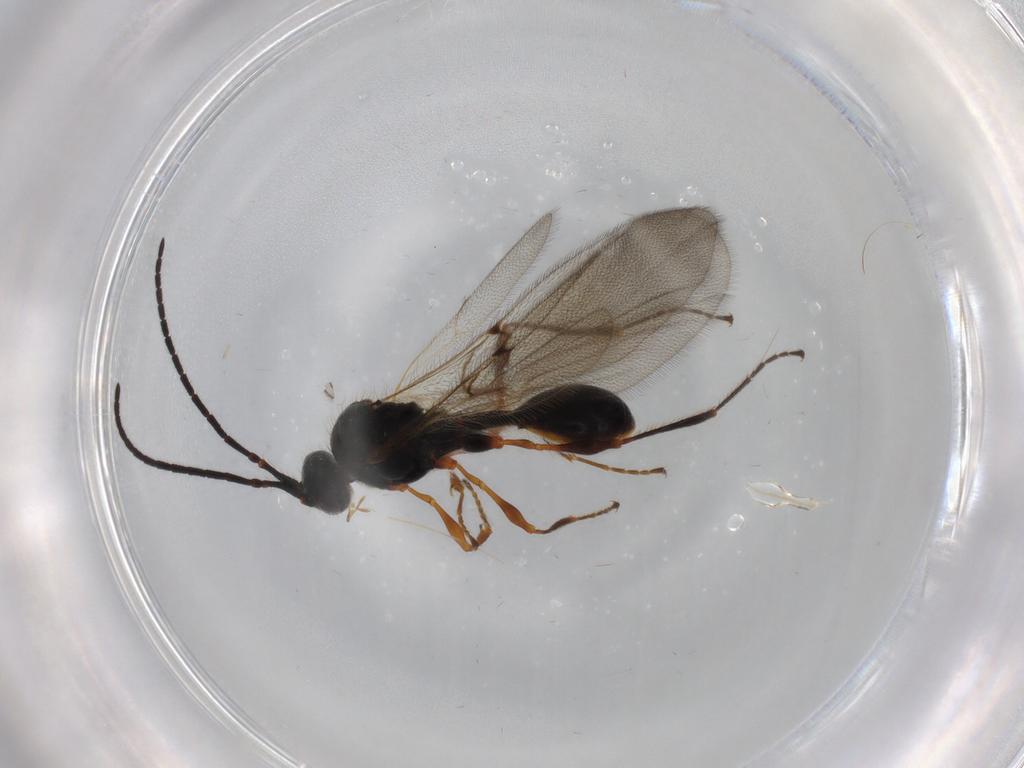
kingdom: Animalia
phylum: Arthropoda
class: Insecta
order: Hymenoptera
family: Diapriidae
